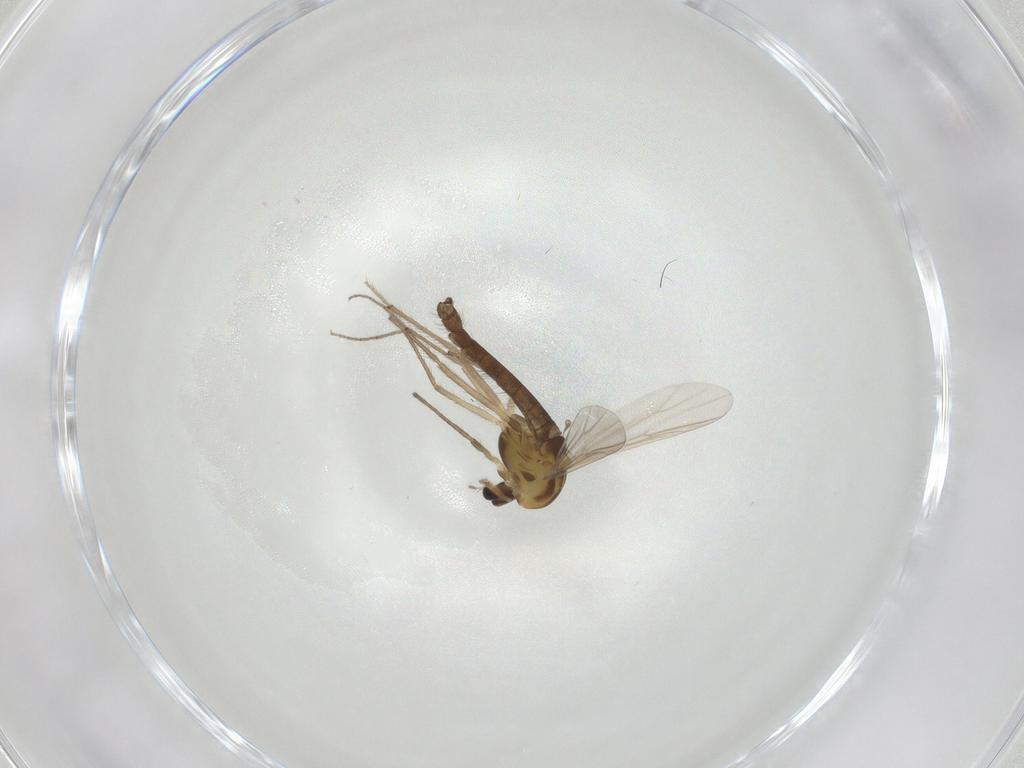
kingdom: Animalia
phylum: Arthropoda
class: Insecta
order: Diptera
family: Chironomidae
